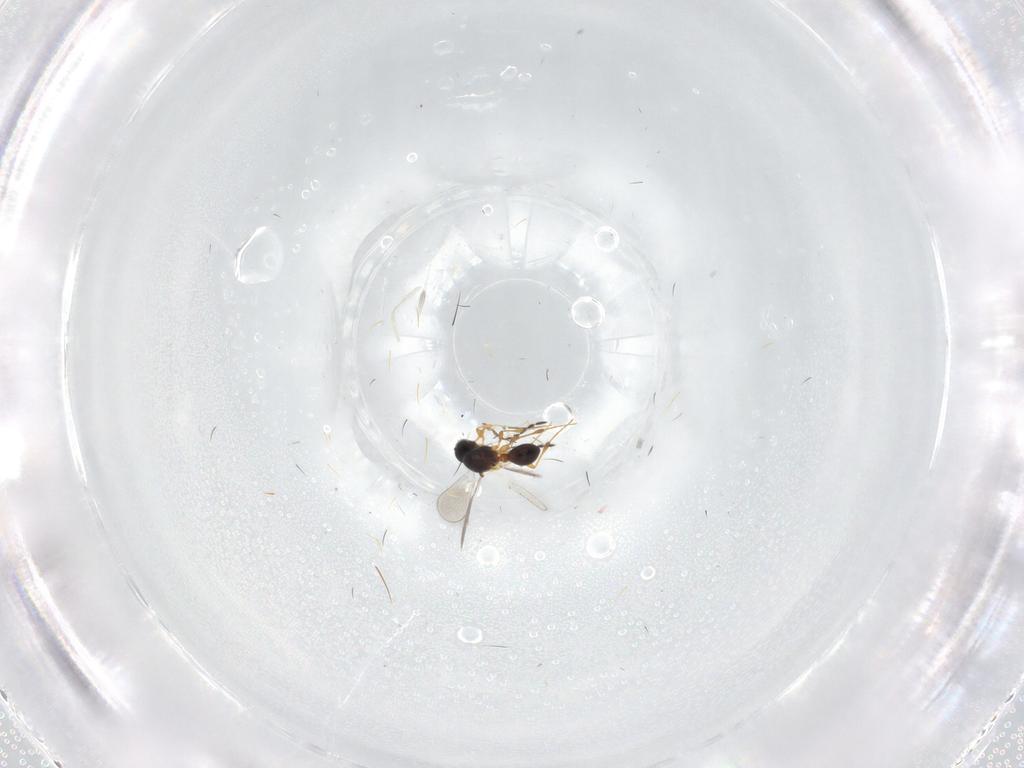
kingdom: Animalia
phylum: Arthropoda
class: Insecta
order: Hymenoptera
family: Platygastridae
